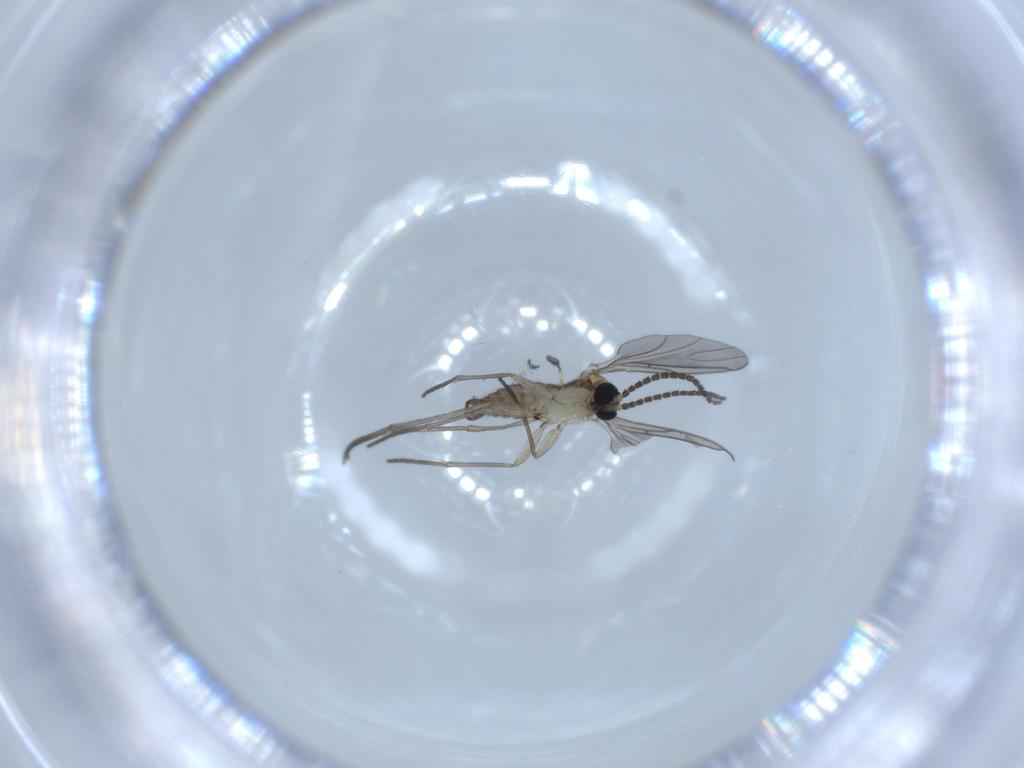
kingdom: Animalia
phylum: Arthropoda
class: Insecta
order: Diptera
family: Sciaridae
